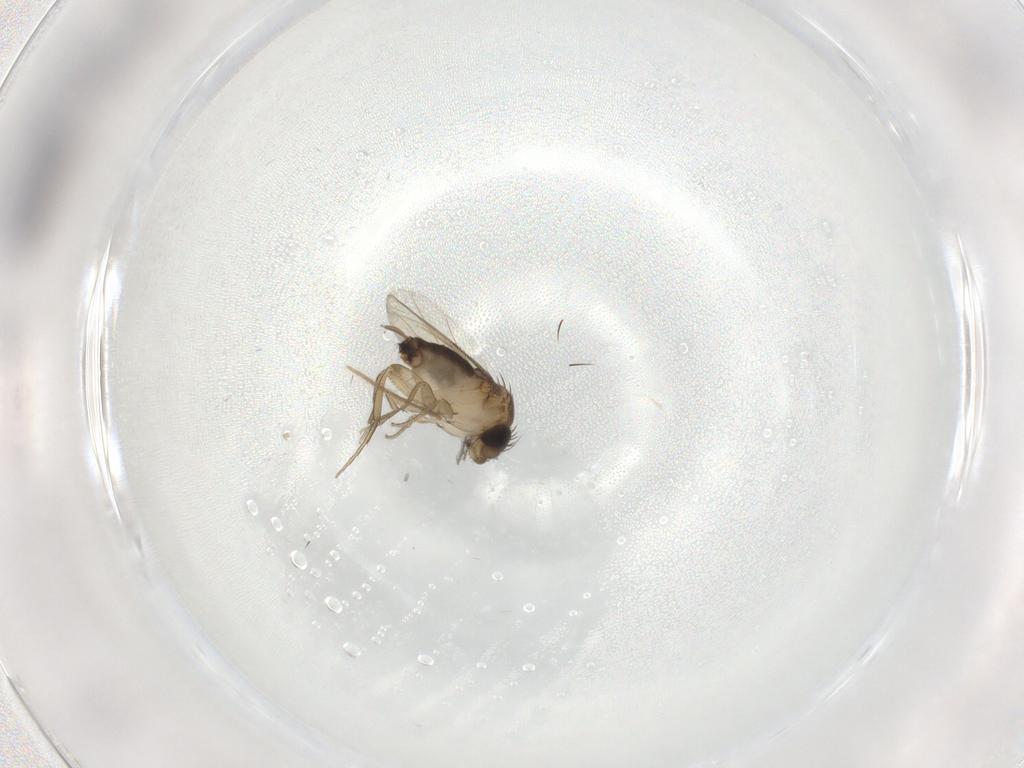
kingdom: Animalia
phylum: Arthropoda
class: Insecta
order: Diptera
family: Chironomidae
